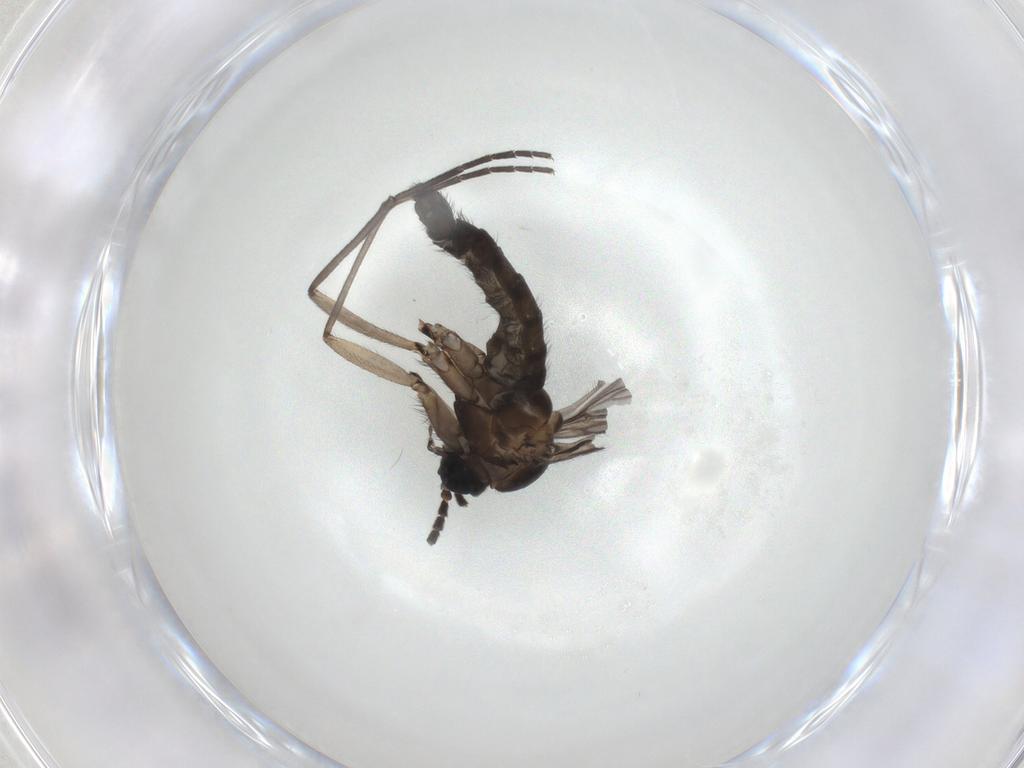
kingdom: Animalia
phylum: Arthropoda
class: Insecta
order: Diptera
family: Sciaridae
